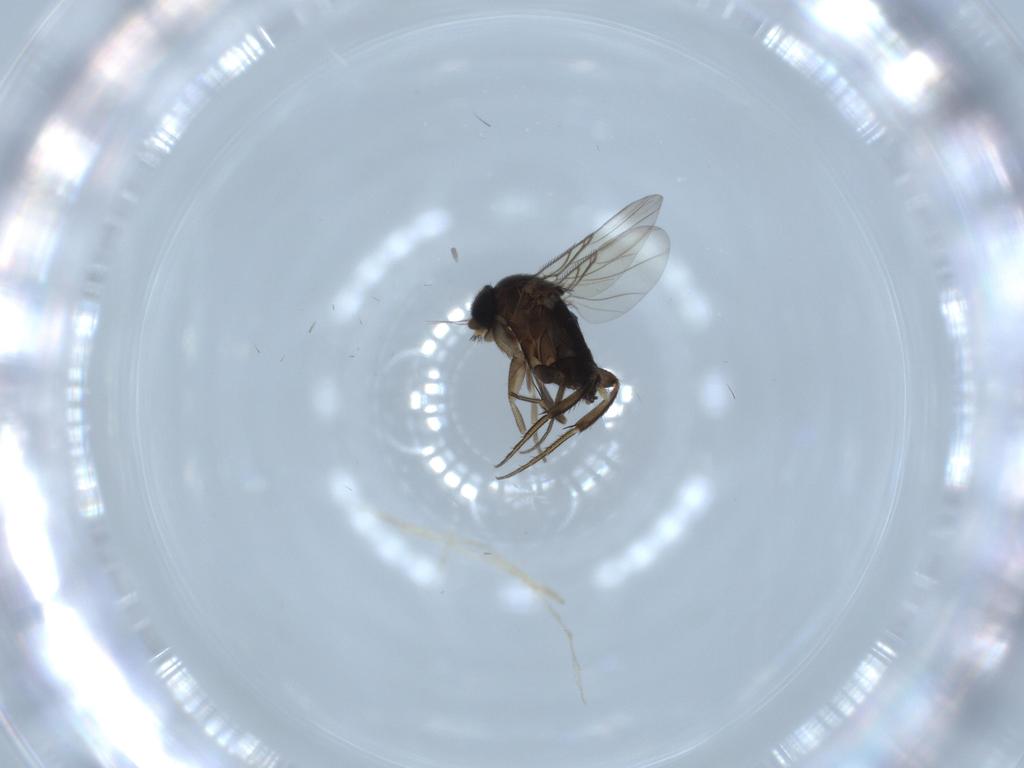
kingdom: Animalia
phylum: Arthropoda
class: Insecta
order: Diptera
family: Phoridae
